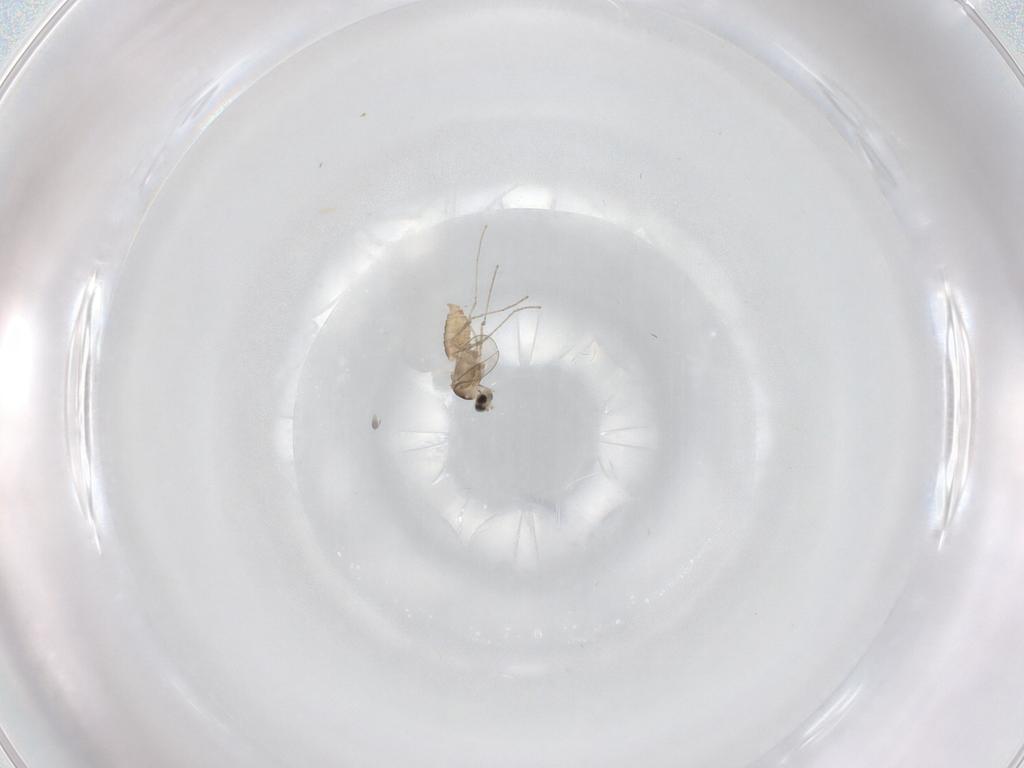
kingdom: Animalia
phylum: Arthropoda
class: Insecta
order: Diptera
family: Cecidomyiidae
